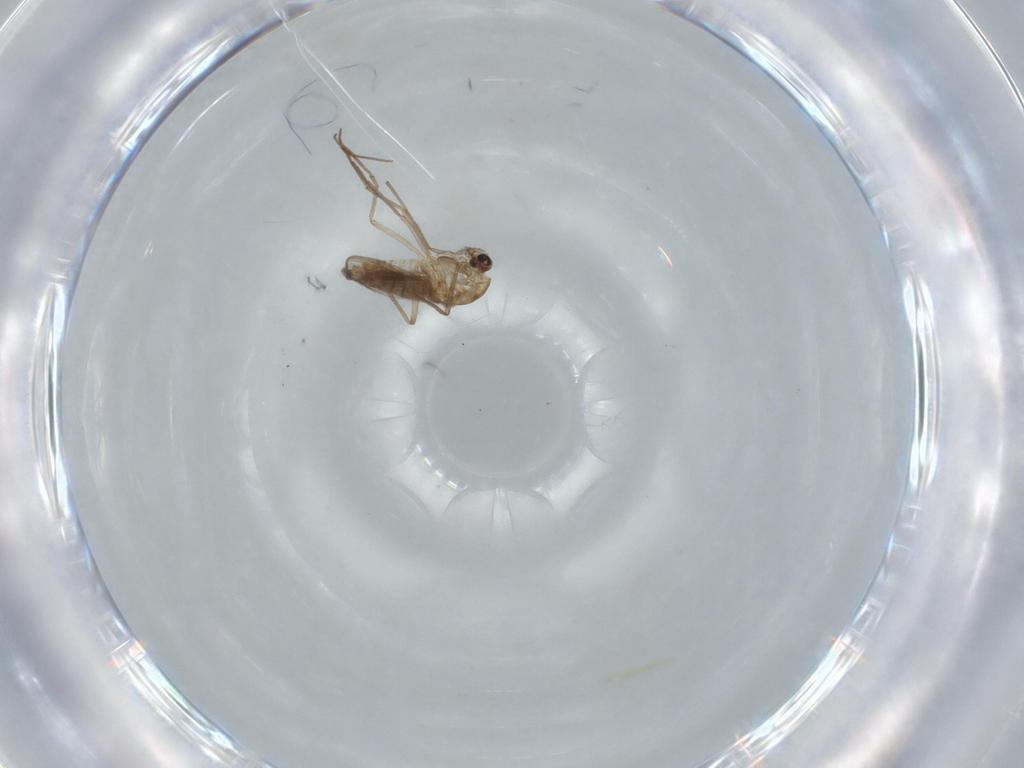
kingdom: Animalia
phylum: Arthropoda
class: Insecta
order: Diptera
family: Chironomidae
